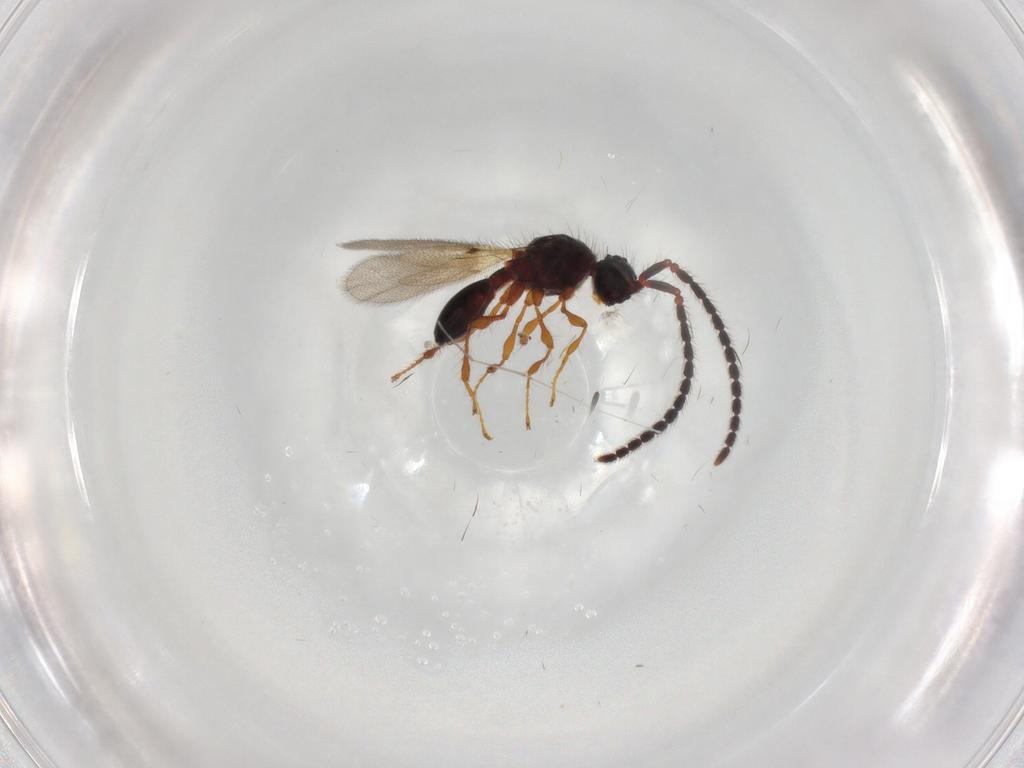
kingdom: Animalia
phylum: Arthropoda
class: Insecta
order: Hymenoptera
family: Diapriidae
